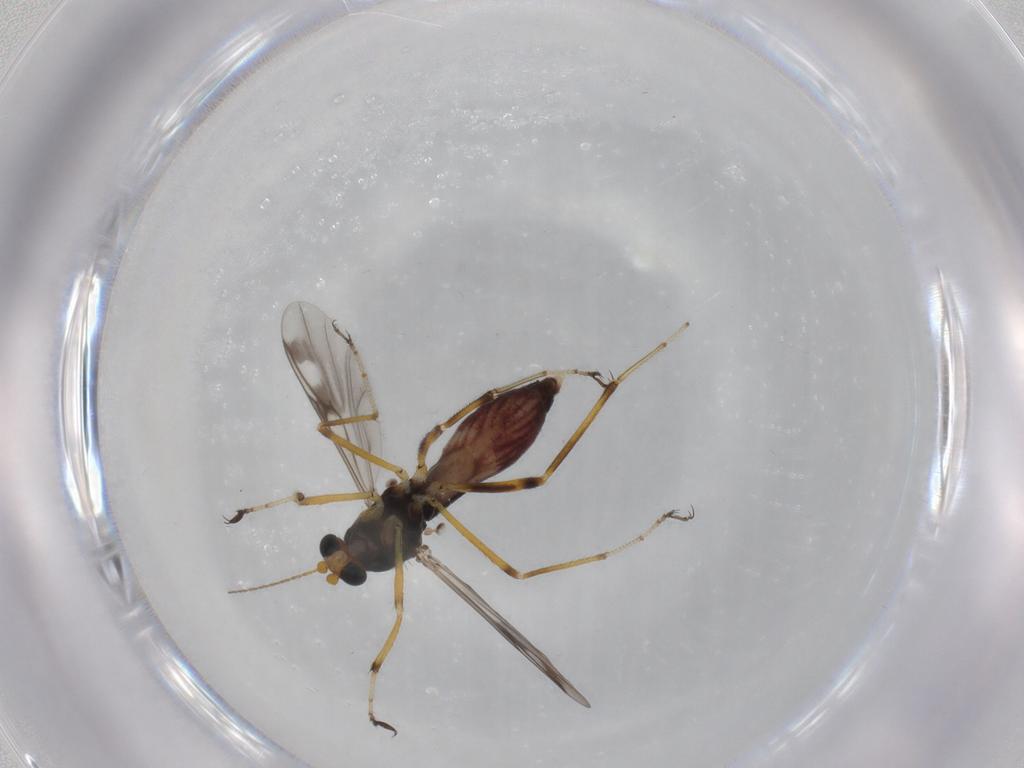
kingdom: Animalia
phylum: Arthropoda
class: Insecta
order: Diptera
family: Ceratopogonidae
